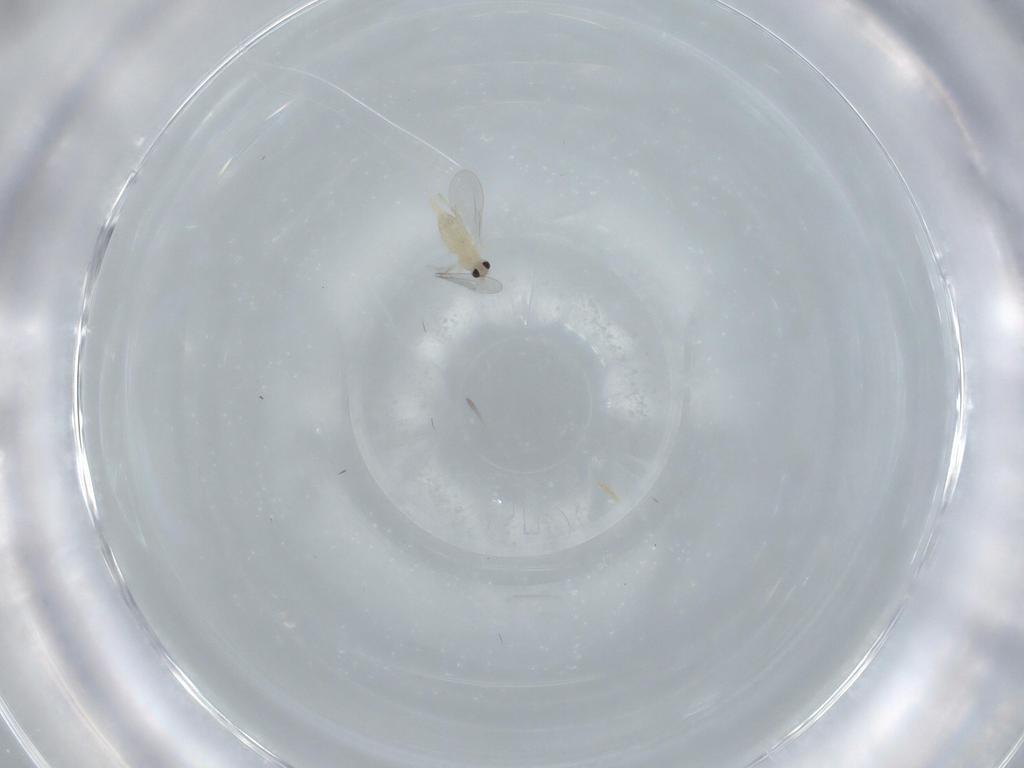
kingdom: Animalia
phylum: Arthropoda
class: Insecta
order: Diptera
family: Cecidomyiidae
